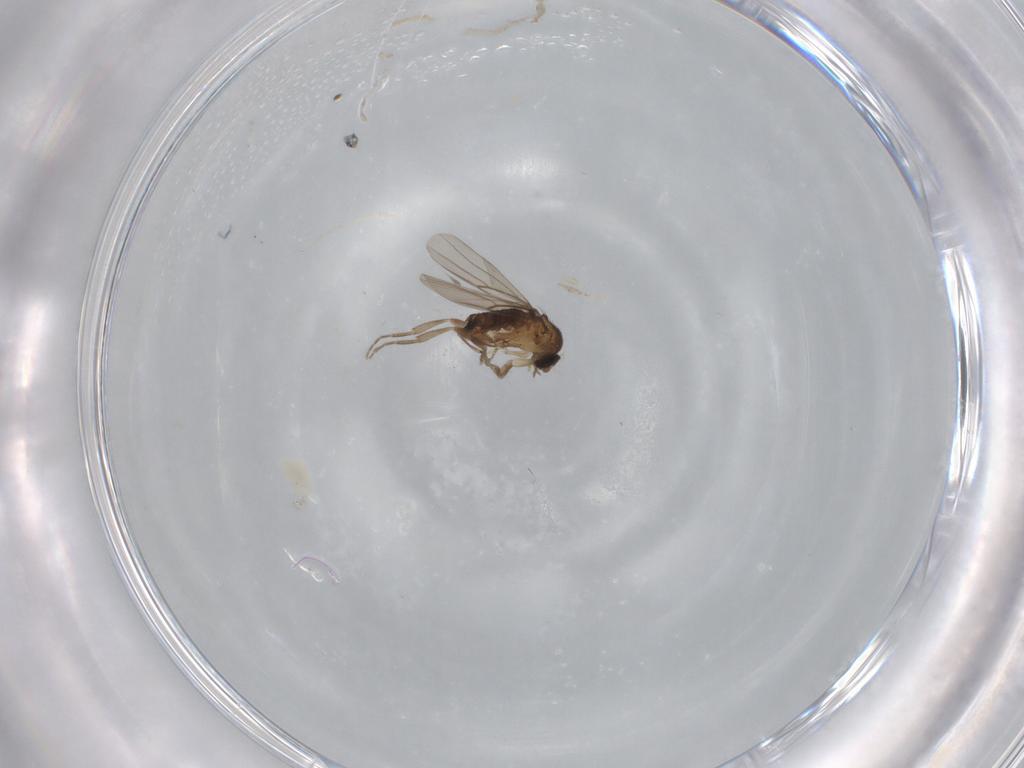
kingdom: Animalia
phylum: Arthropoda
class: Insecta
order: Diptera
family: Phoridae
